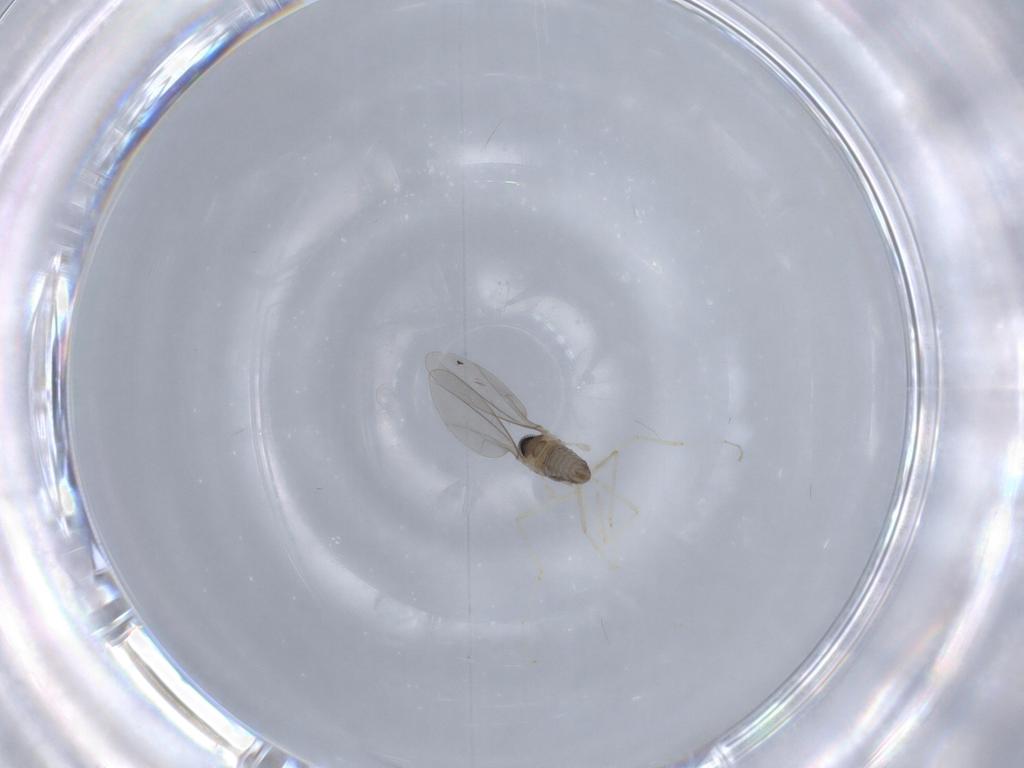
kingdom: Animalia
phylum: Arthropoda
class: Insecta
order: Diptera
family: Cecidomyiidae
